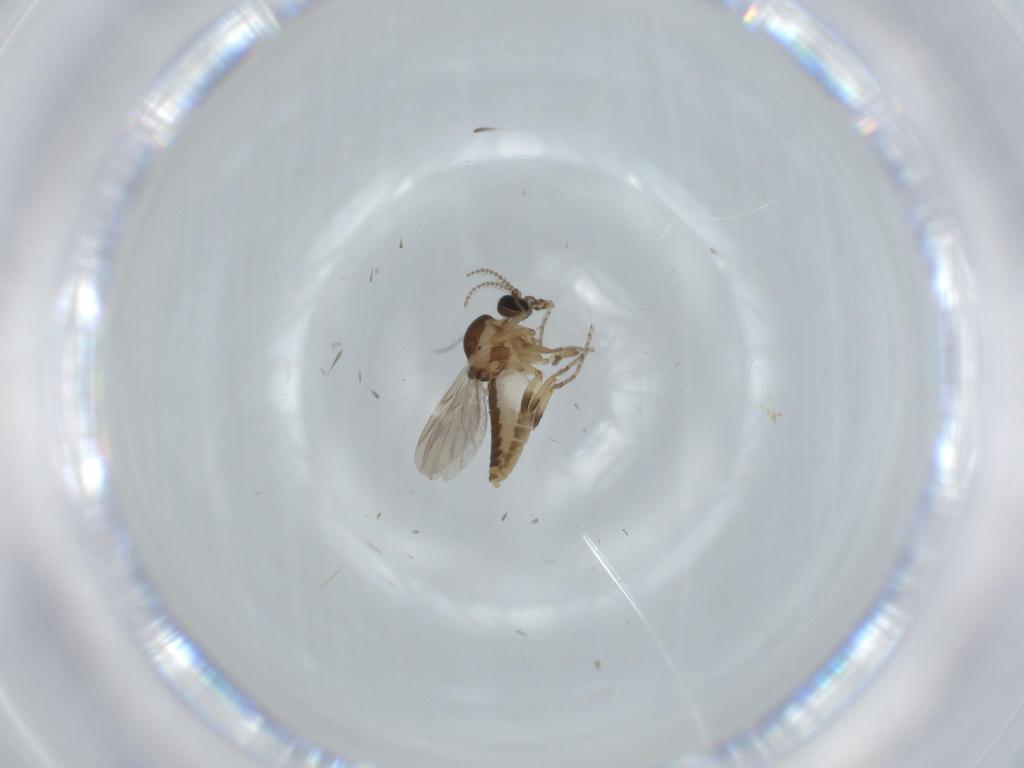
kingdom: Animalia
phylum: Arthropoda
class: Insecta
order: Diptera
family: Ceratopogonidae
